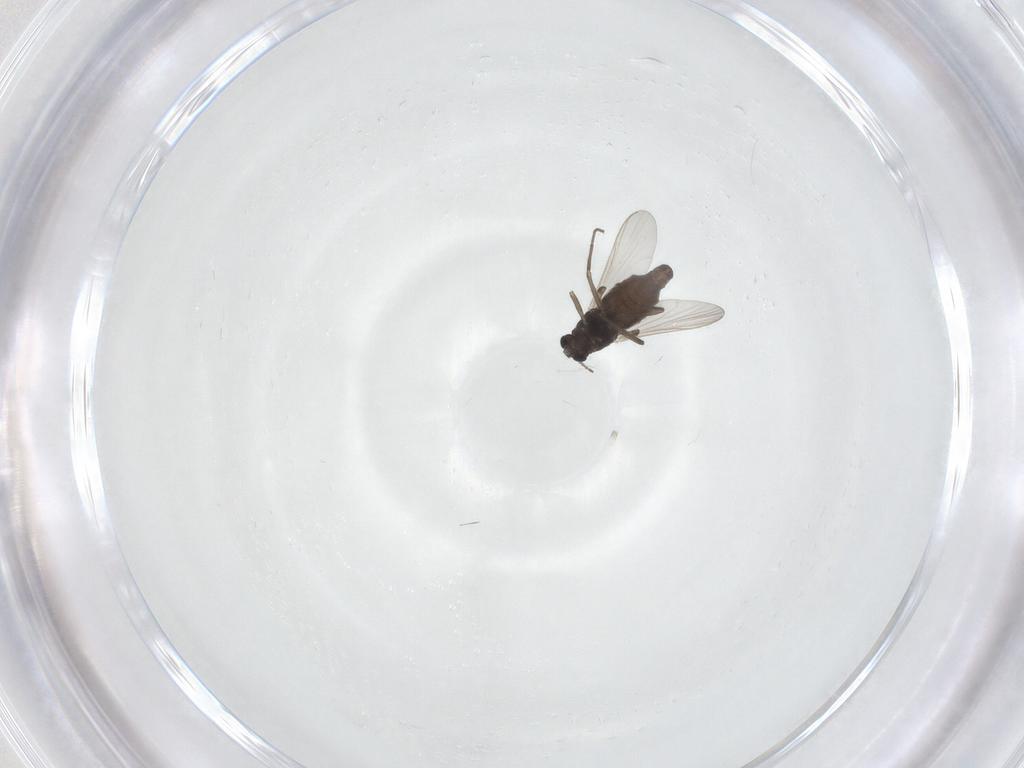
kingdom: Animalia
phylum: Arthropoda
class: Insecta
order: Diptera
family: Chironomidae
